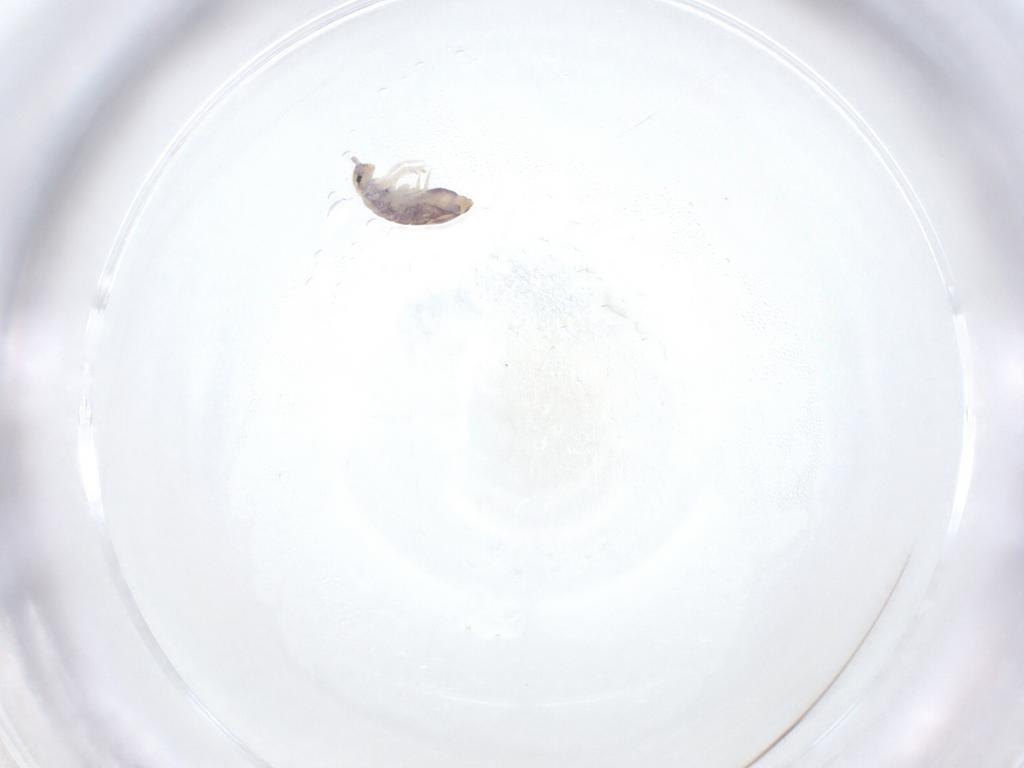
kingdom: Animalia
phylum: Arthropoda
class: Collembola
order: Entomobryomorpha
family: Entomobryidae
